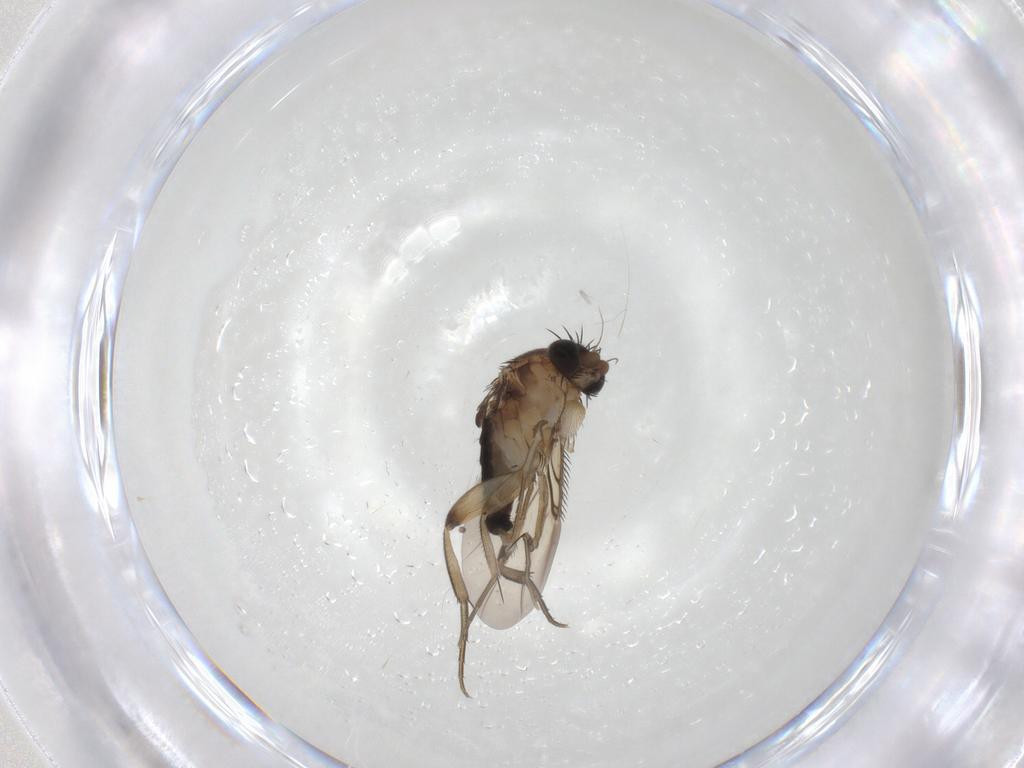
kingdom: Animalia
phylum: Arthropoda
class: Insecta
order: Diptera
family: Phoridae
